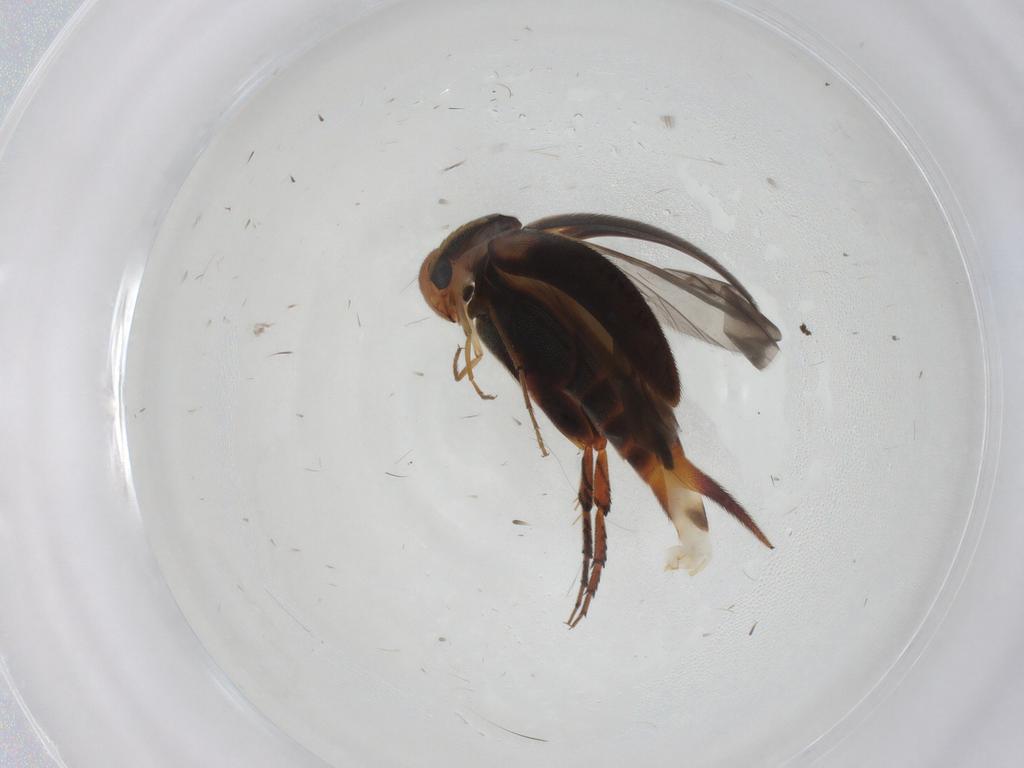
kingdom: Animalia
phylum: Arthropoda
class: Insecta
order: Coleoptera
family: Mordellidae
